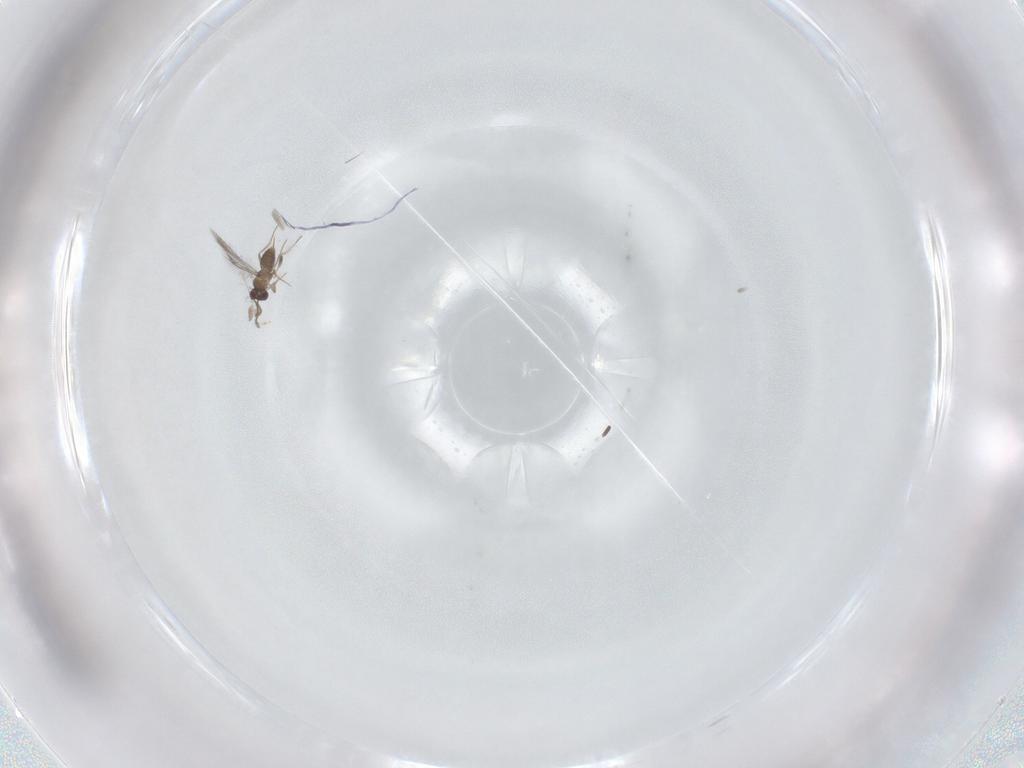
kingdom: Animalia
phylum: Arthropoda
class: Insecta
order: Hymenoptera
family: Mymaridae
